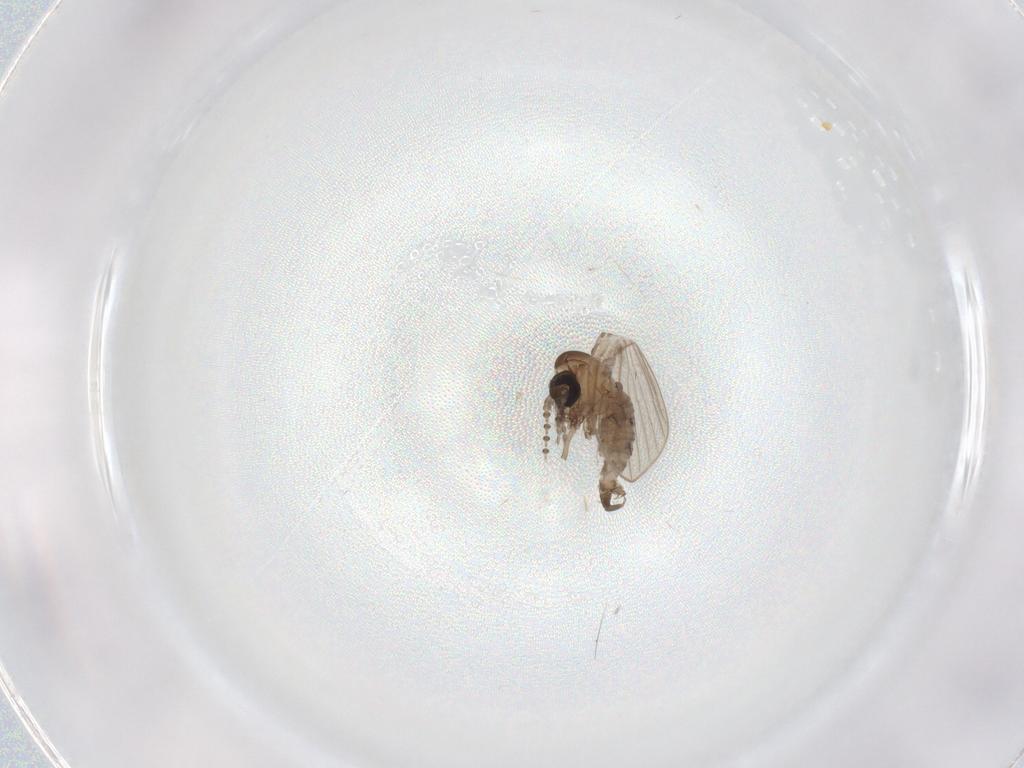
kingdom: Animalia
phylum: Arthropoda
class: Insecta
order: Diptera
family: Psychodidae
